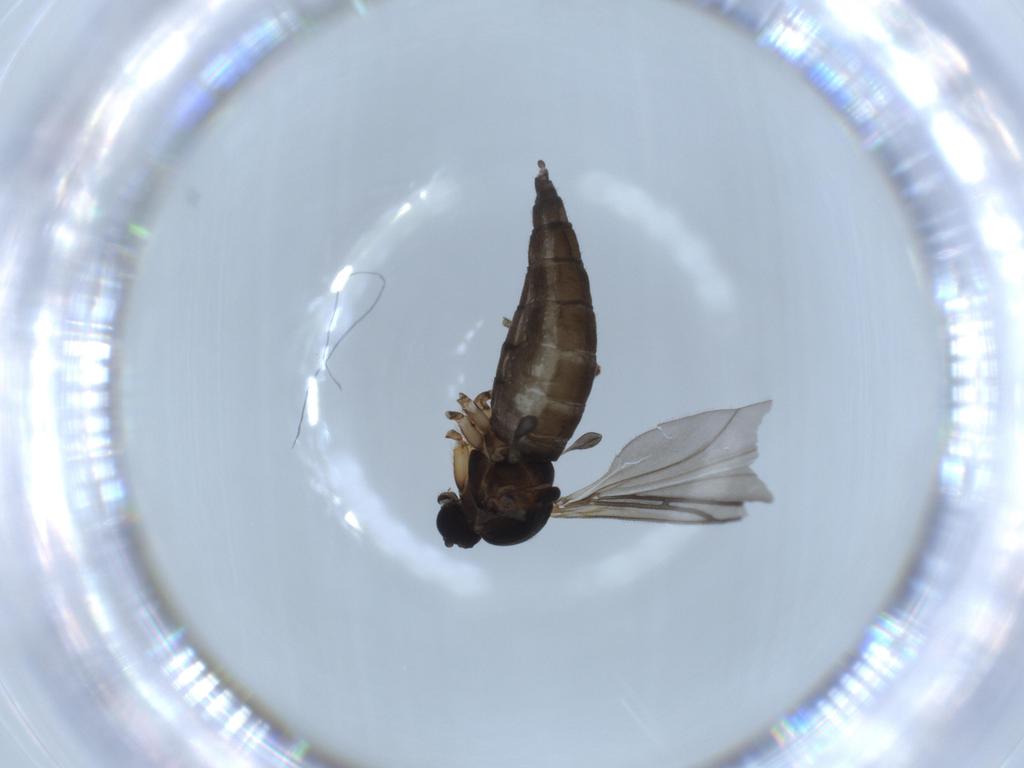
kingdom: Animalia
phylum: Arthropoda
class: Insecta
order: Diptera
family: Sciaridae
